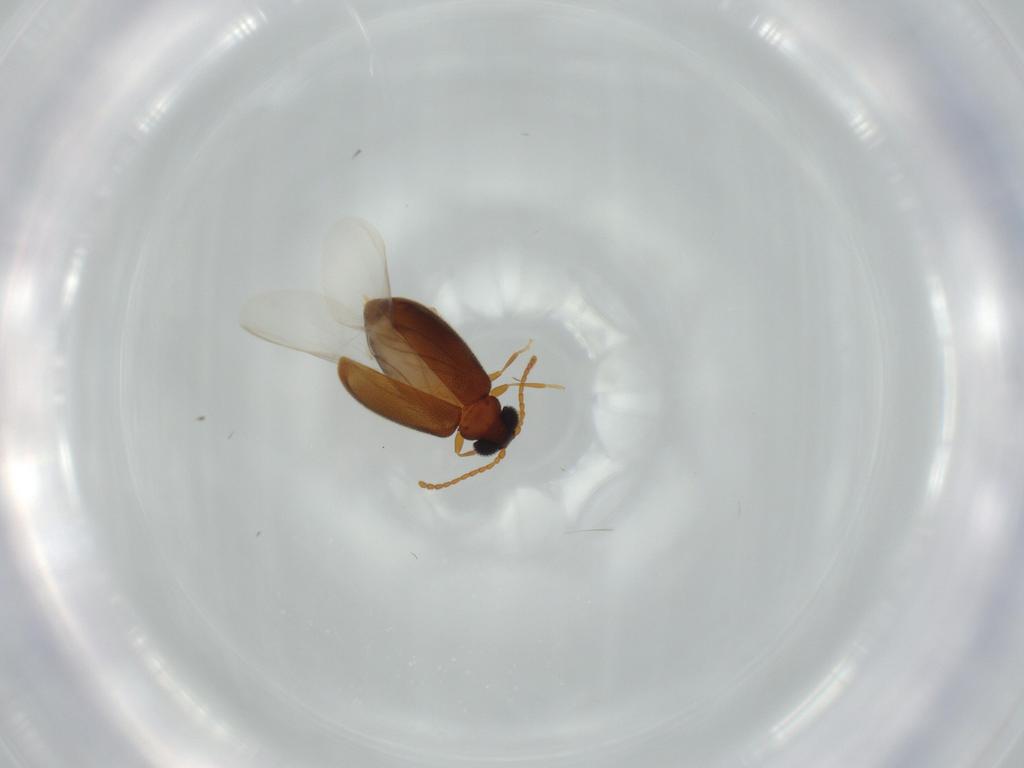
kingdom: Animalia
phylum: Arthropoda
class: Insecta
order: Coleoptera
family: Aderidae
